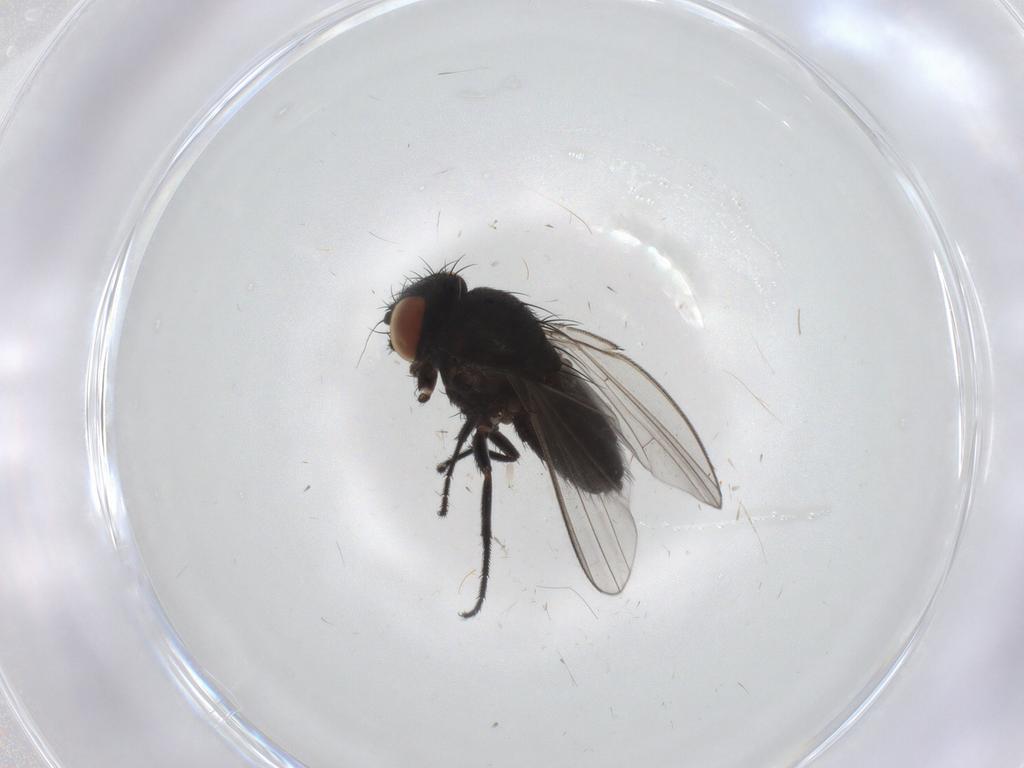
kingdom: Animalia
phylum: Arthropoda
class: Insecta
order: Diptera
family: Milichiidae
